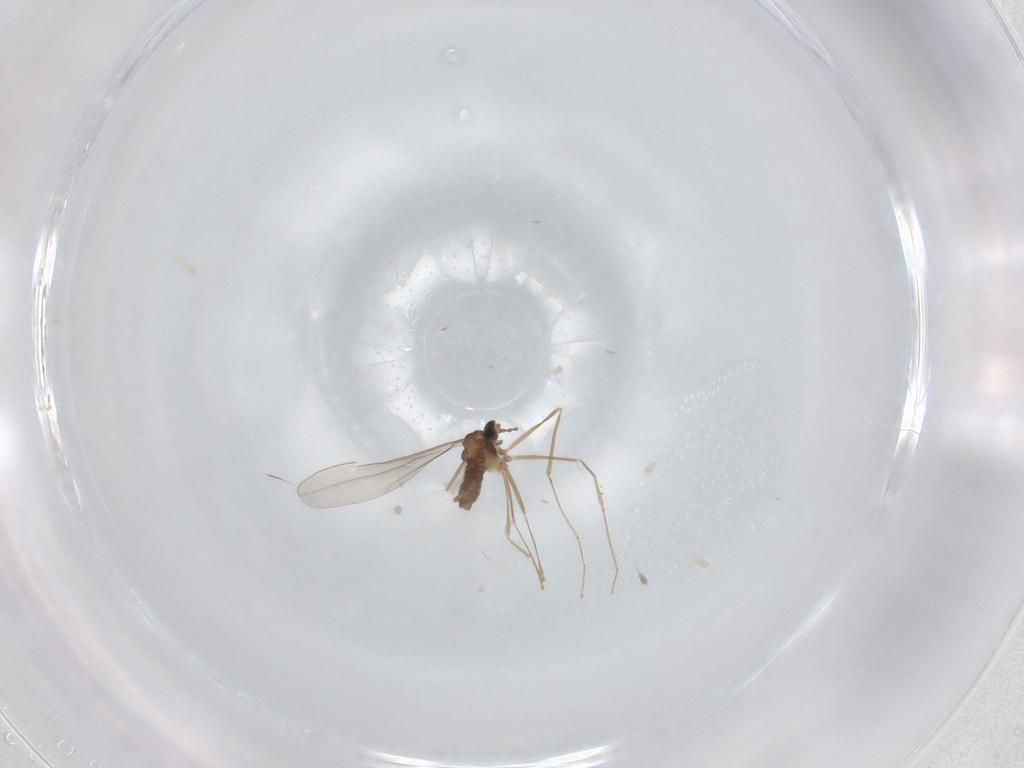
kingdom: Animalia
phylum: Arthropoda
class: Insecta
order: Diptera
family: Cecidomyiidae
